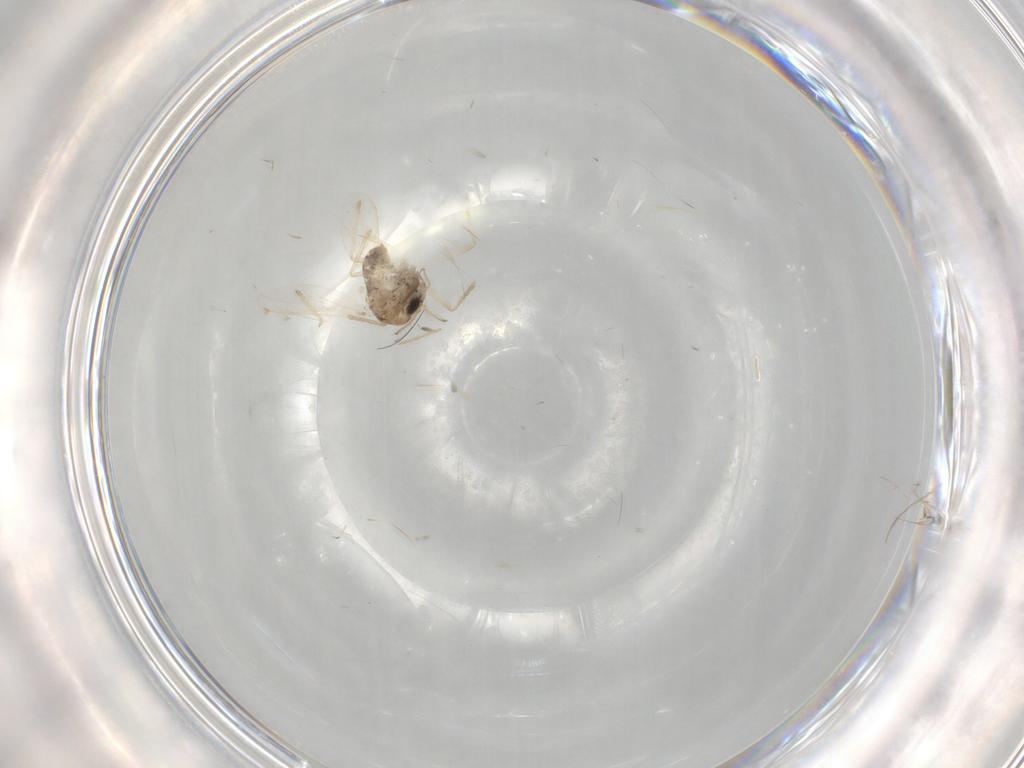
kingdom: Animalia
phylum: Arthropoda
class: Insecta
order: Diptera
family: Chironomidae
